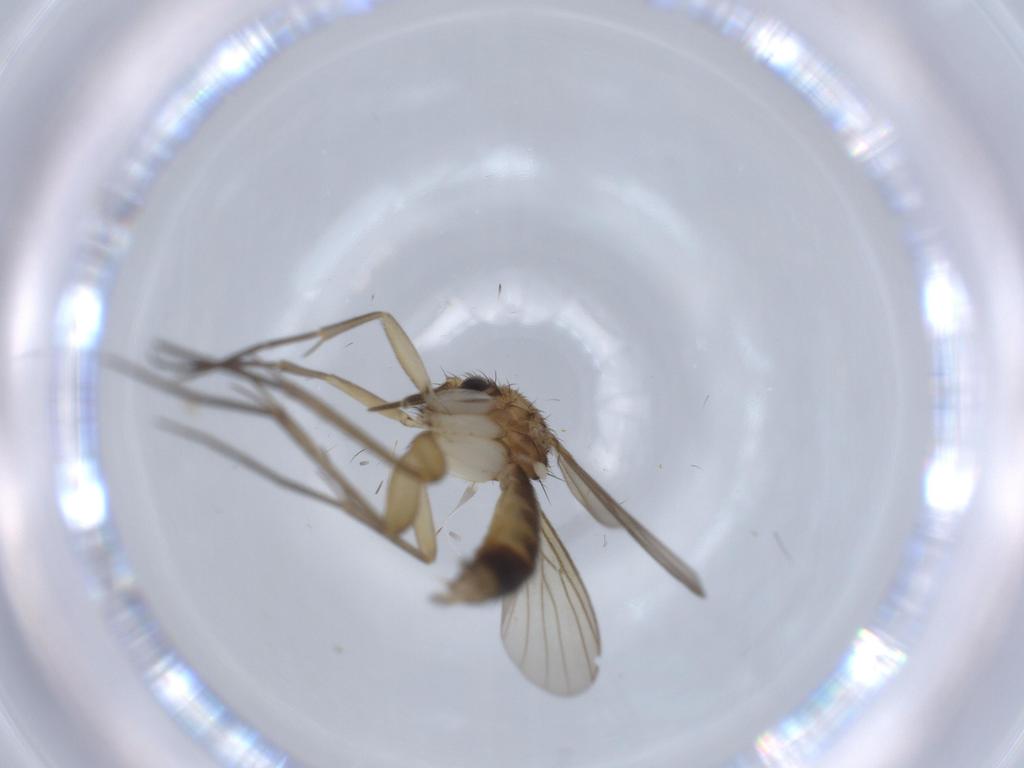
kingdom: Animalia
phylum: Arthropoda
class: Insecta
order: Diptera
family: Mycetophilidae
